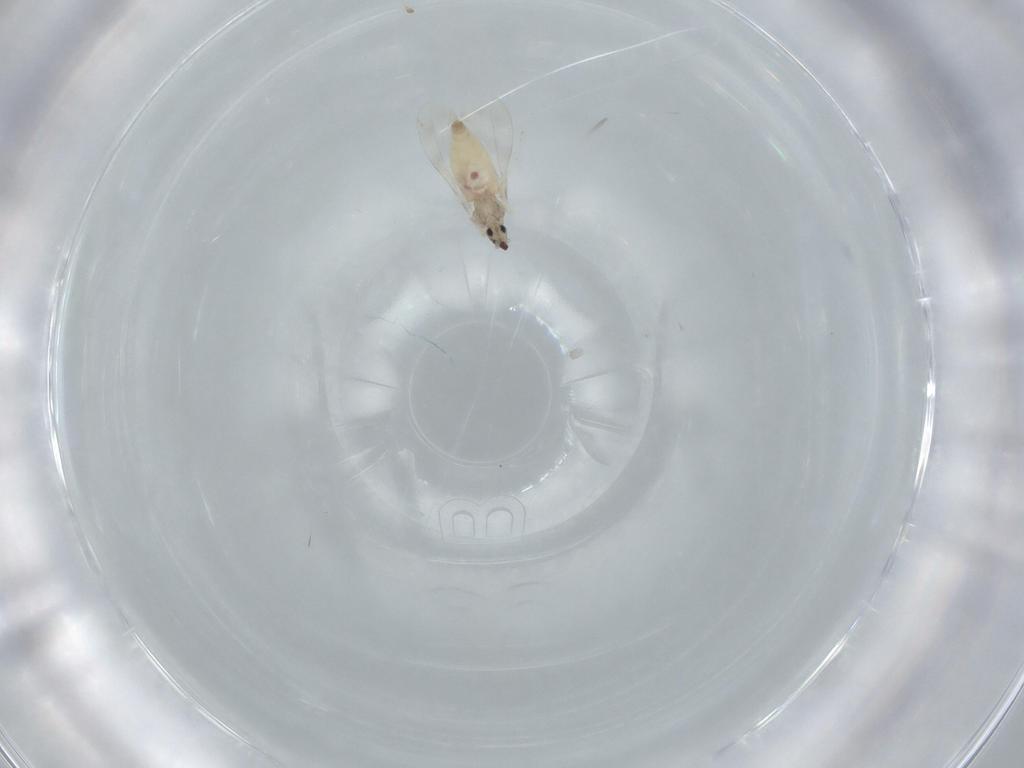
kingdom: Animalia
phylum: Arthropoda
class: Insecta
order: Diptera
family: Cecidomyiidae
